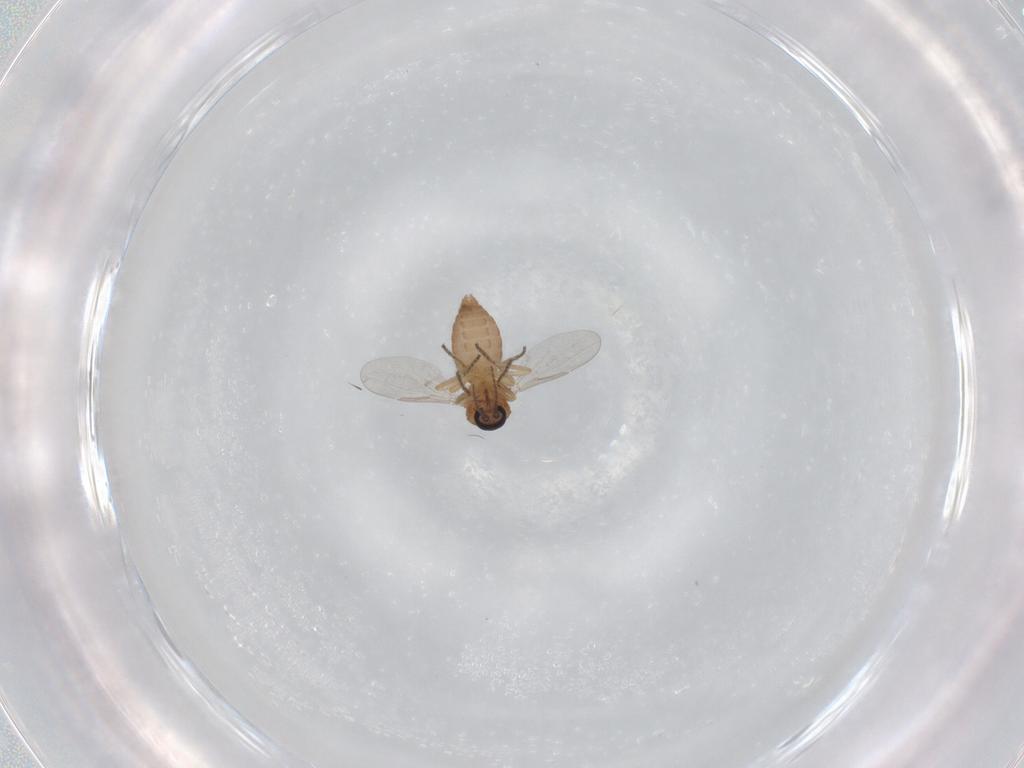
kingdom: Animalia
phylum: Arthropoda
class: Insecta
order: Diptera
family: Ceratopogonidae
